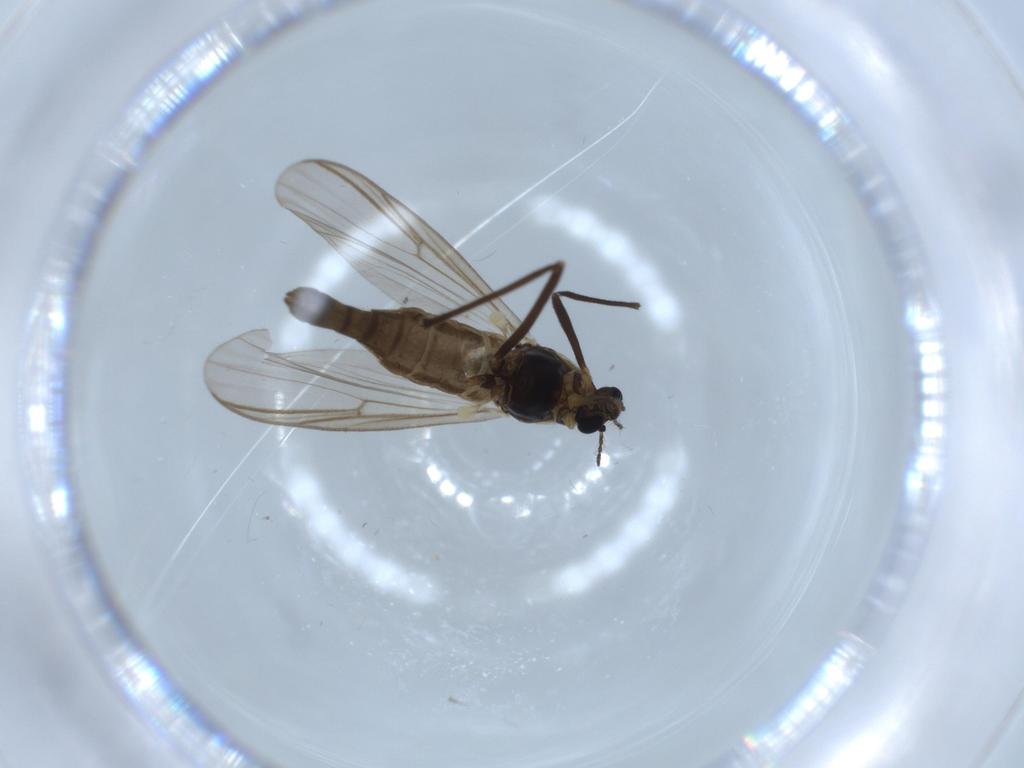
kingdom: Animalia
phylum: Arthropoda
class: Insecta
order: Diptera
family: Chironomidae
